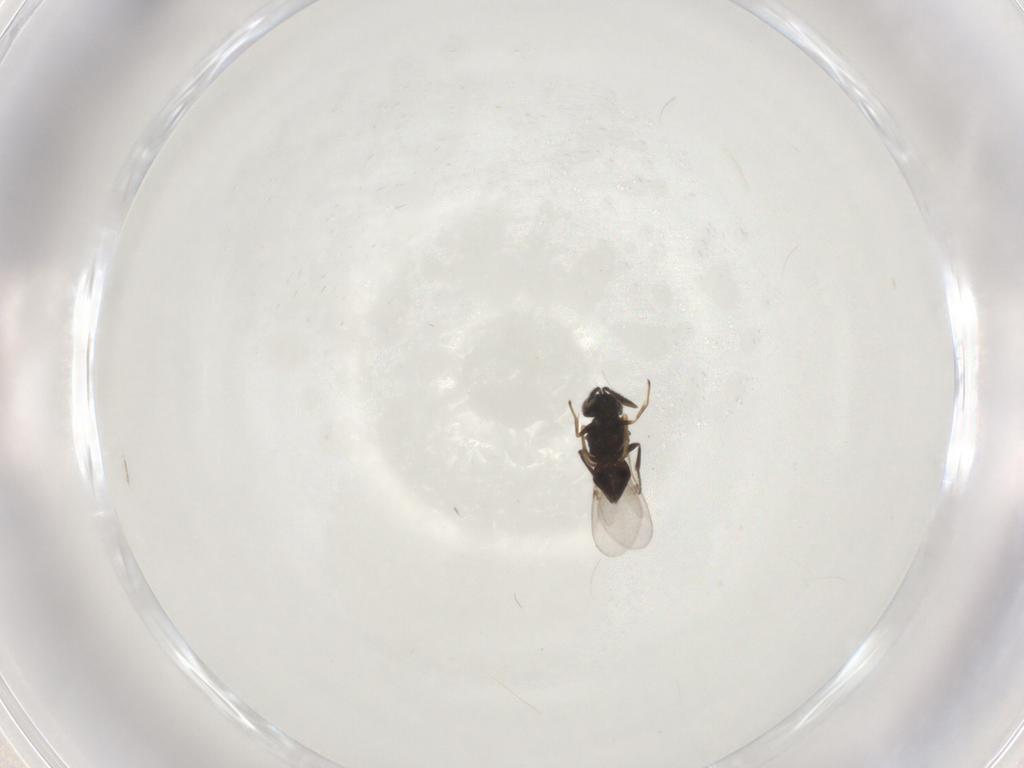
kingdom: Animalia
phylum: Arthropoda
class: Insecta
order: Hymenoptera
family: Encyrtidae
